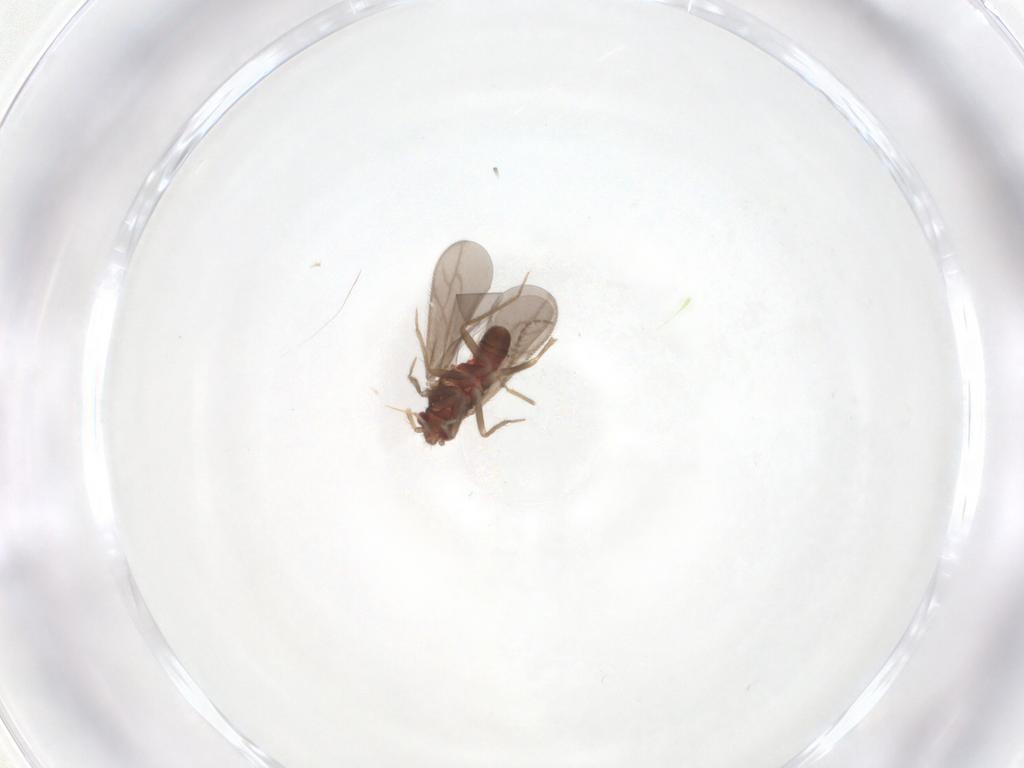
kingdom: Animalia
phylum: Arthropoda
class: Insecta
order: Hemiptera
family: Ceratocombidae
